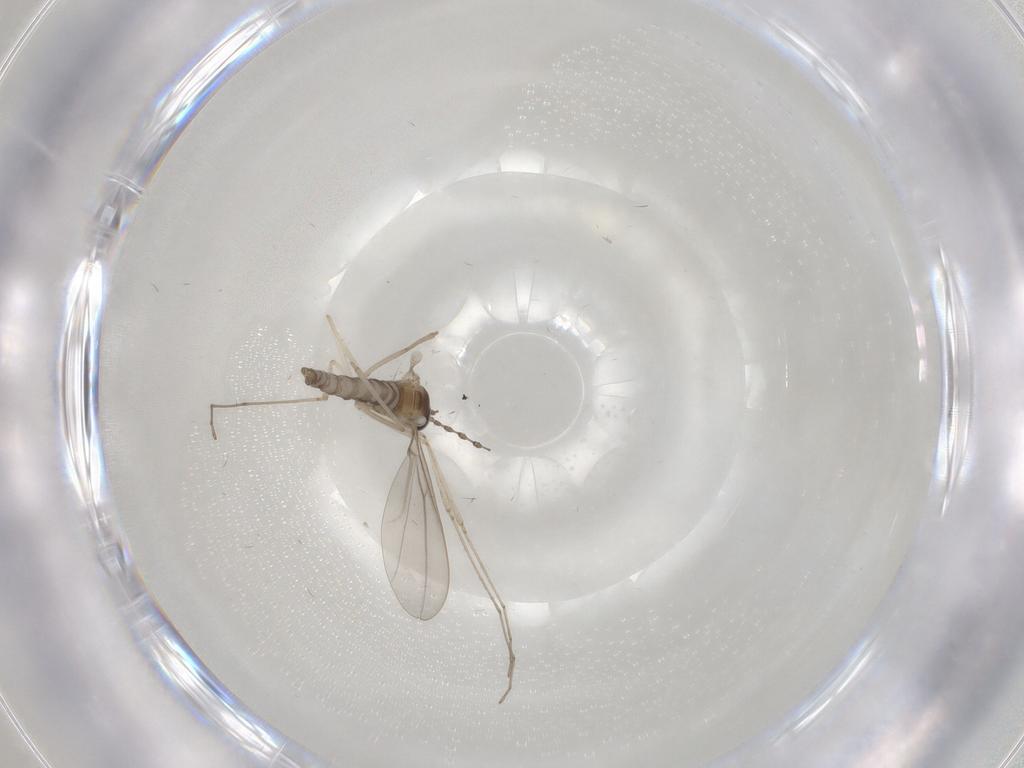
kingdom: Animalia
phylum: Arthropoda
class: Insecta
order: Diptera
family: Cecidomyiidae
